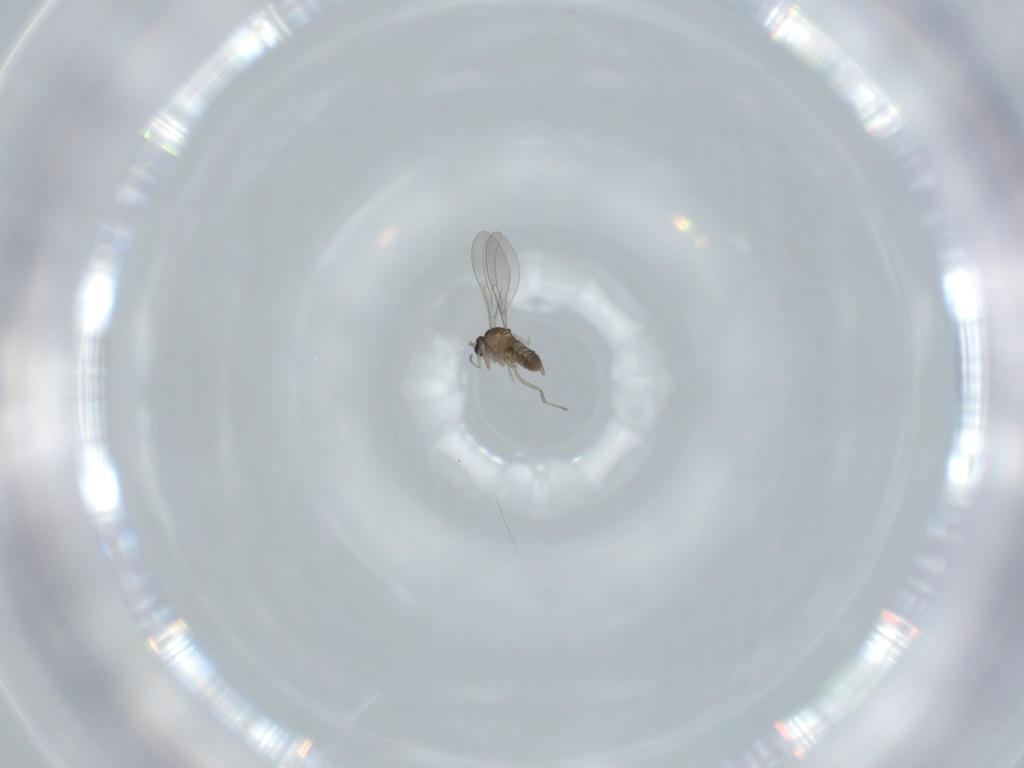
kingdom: Animalia
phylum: Arthropoda
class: Insecta
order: Diptera
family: Cecidomyiidae
